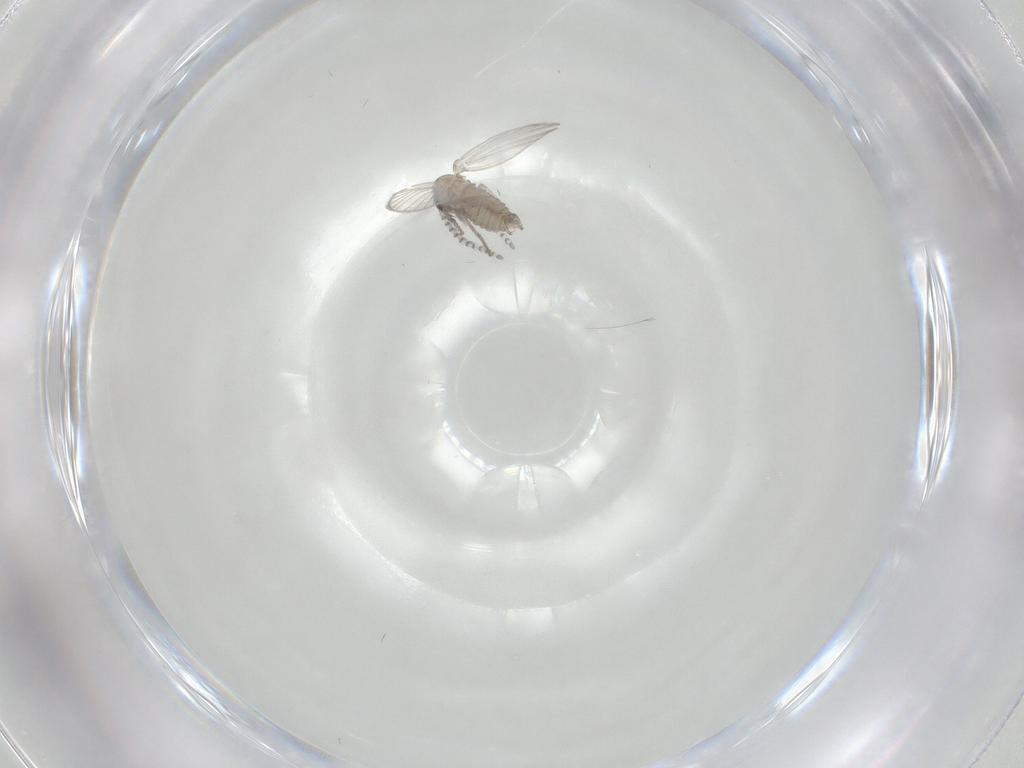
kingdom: Animalia
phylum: Arthropoda
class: Insecta
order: Diptera
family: Psychodidae
